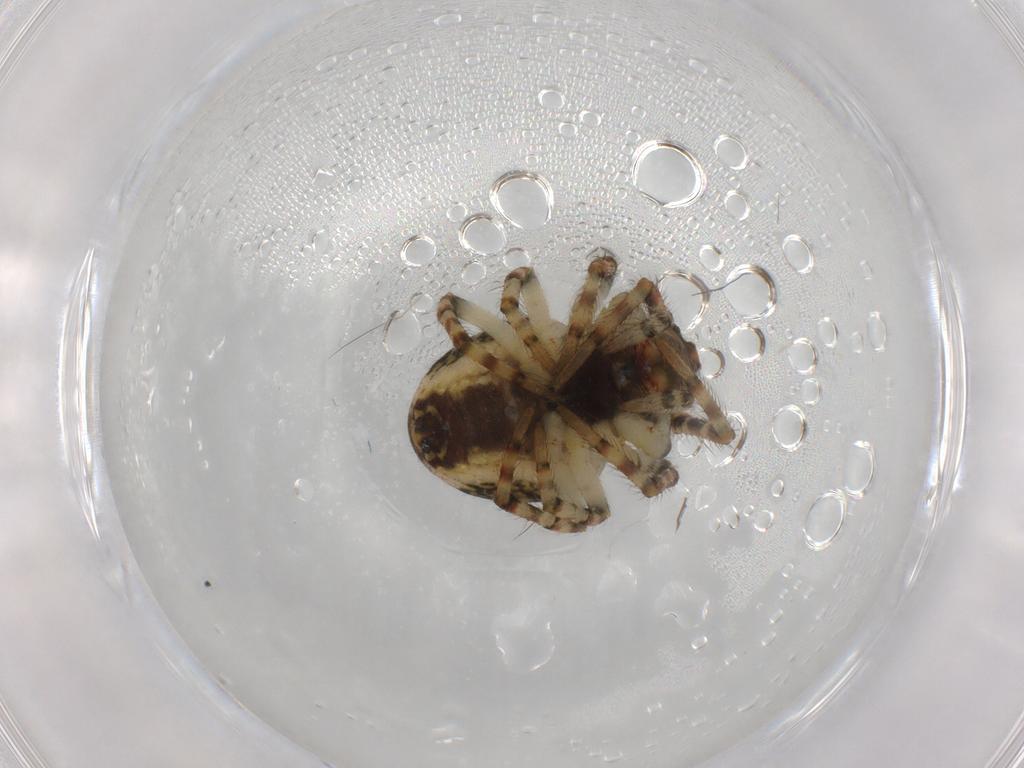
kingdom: Animalia
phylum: Arthropoda
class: Arachnida
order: Araneae
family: Araneidae
